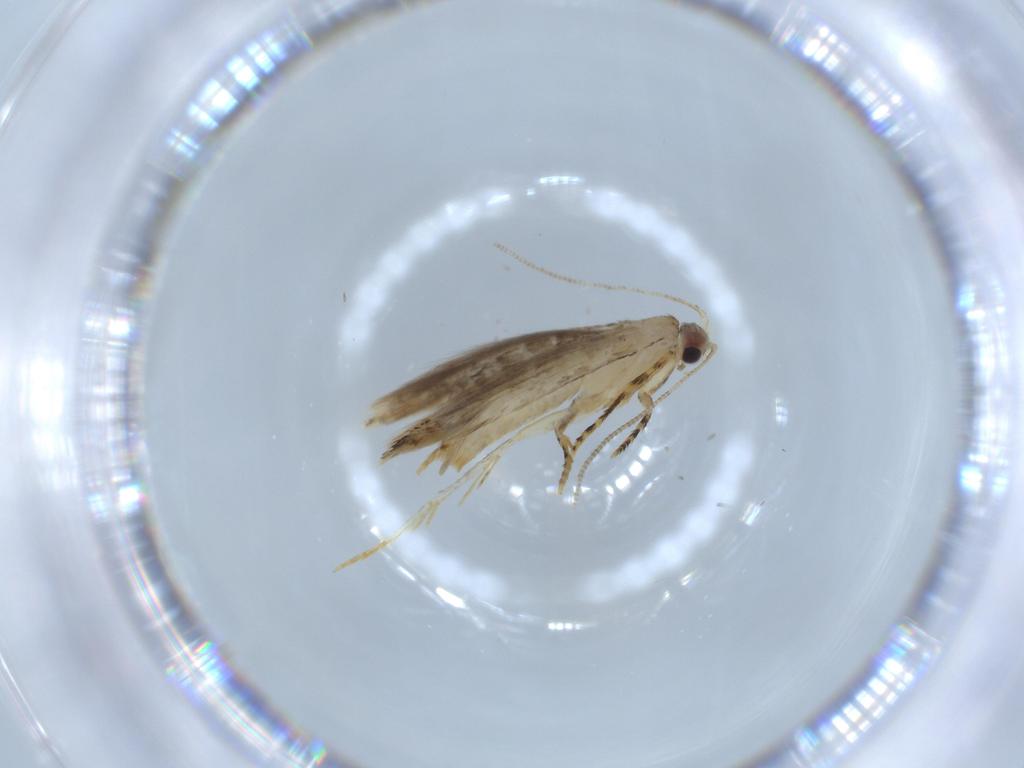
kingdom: Animalia
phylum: Arthropoda
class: Insecta
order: Lepidoptera
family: Tineidae
